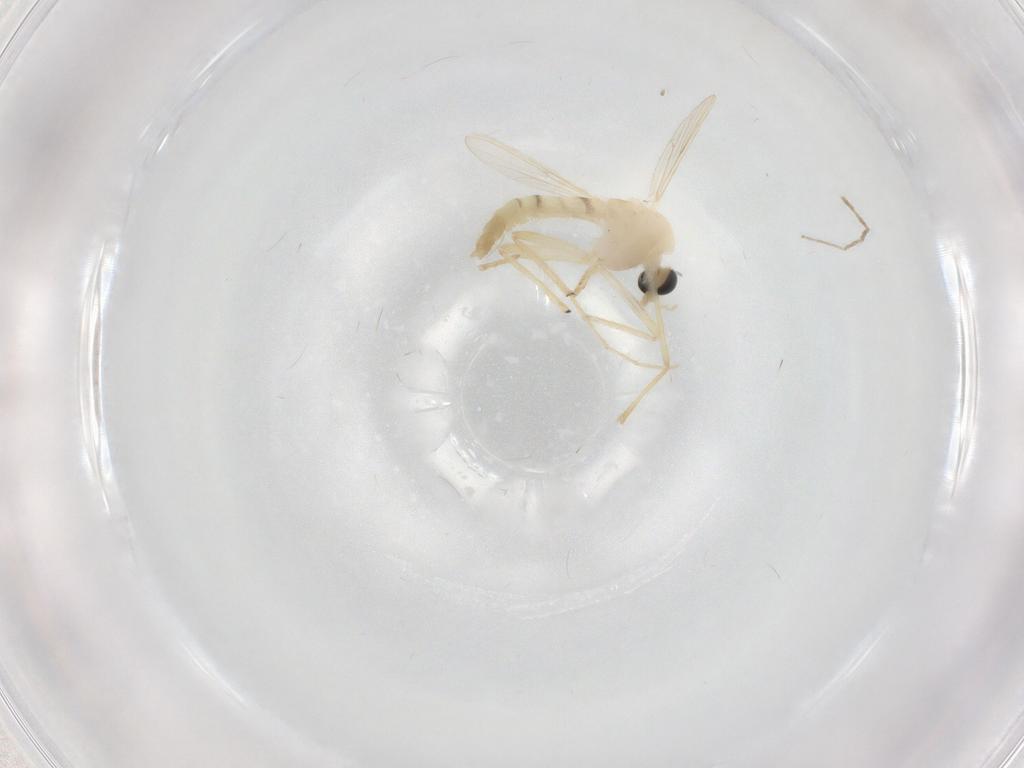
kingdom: Animalia
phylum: Arthropoda
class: Insecta
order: Diptera
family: Chironomidae
